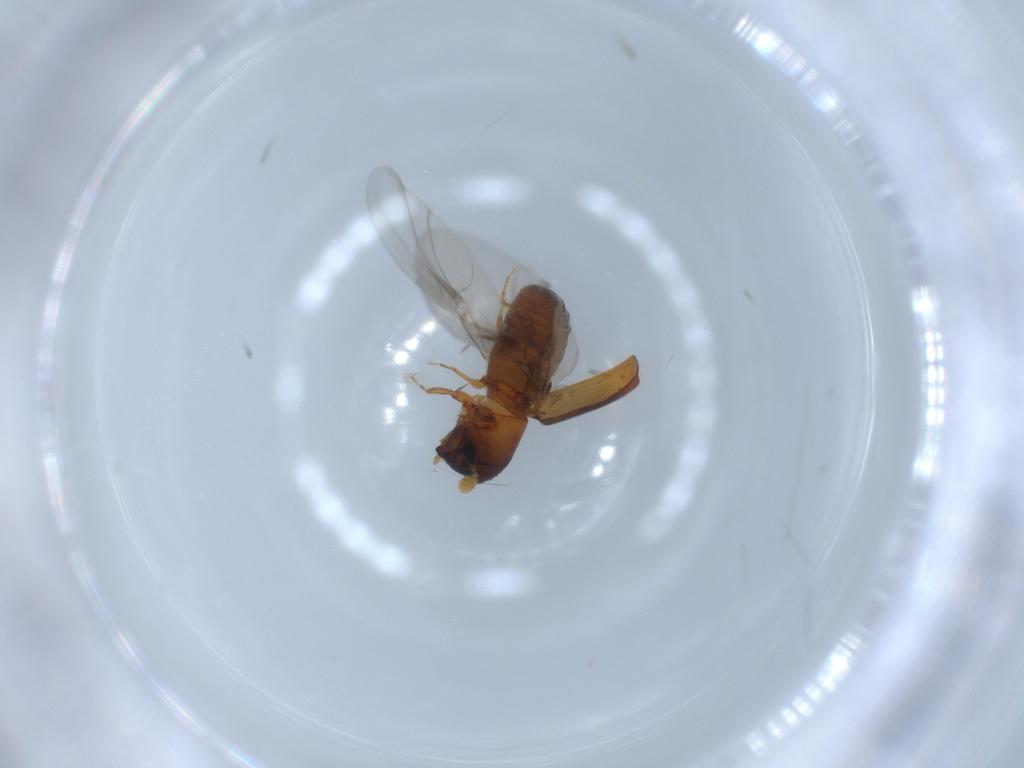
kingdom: Animalia
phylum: Arthropoda
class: Insecta
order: Coleoptera
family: Curculionidae
